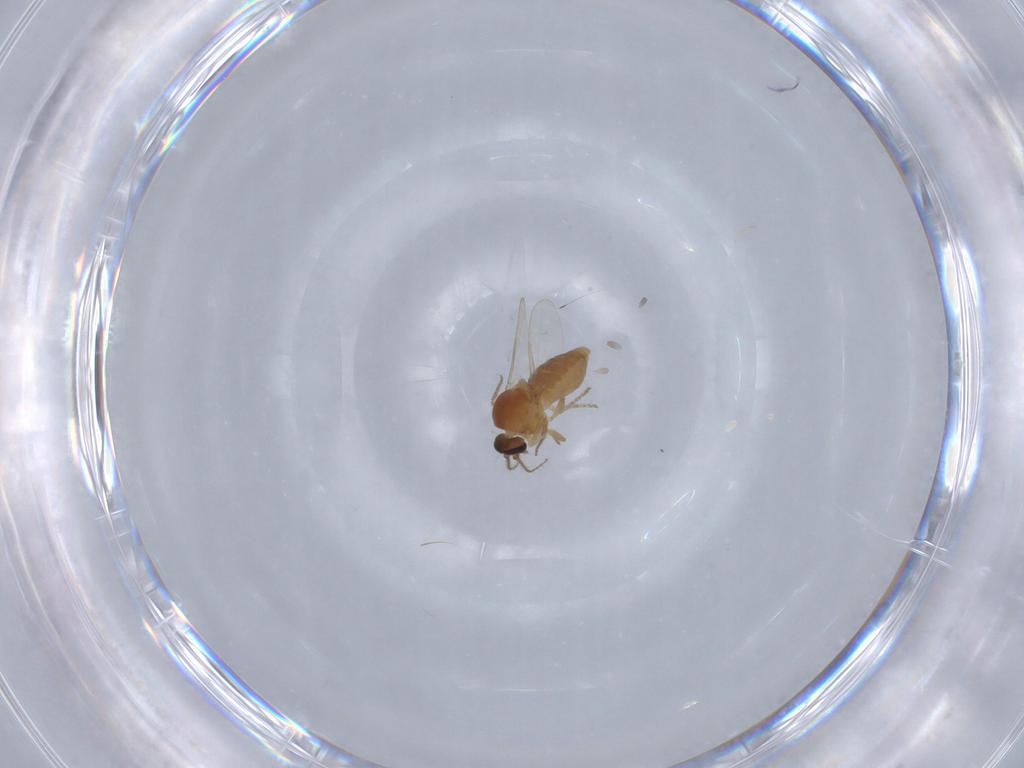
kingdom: Animalia
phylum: Arthropoda
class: Insecta
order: Diptera
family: Ceratopogonidae
